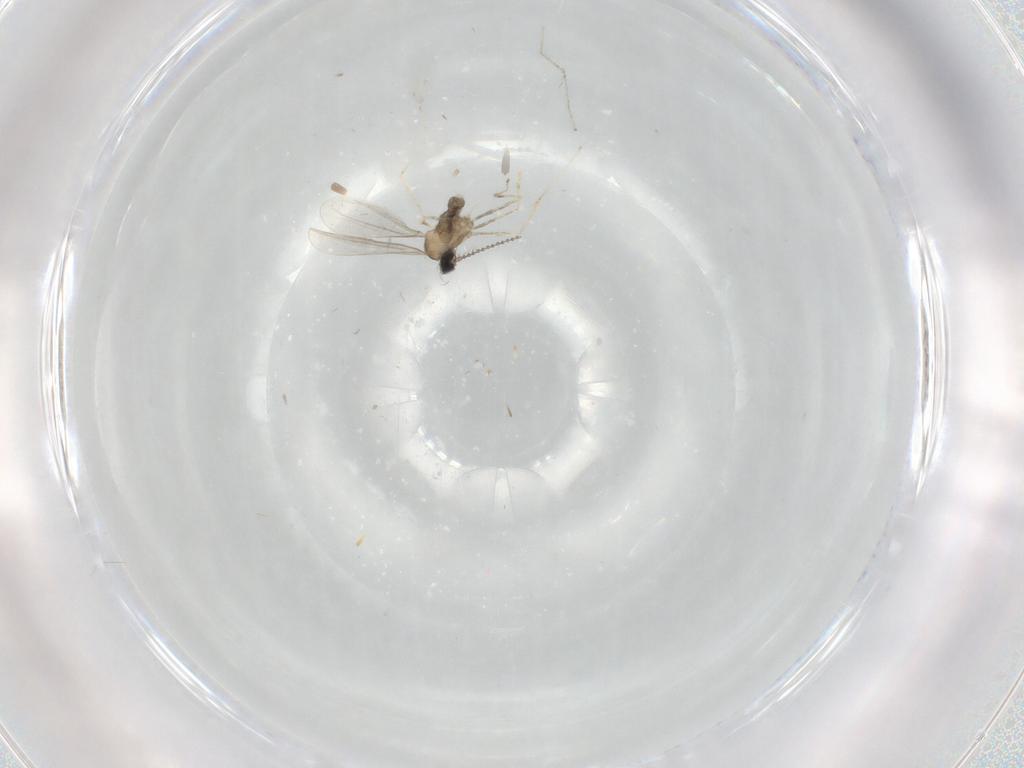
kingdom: Animalia
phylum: Arthropoda
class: Insecta
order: Diptera
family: Cecidomyiidae
